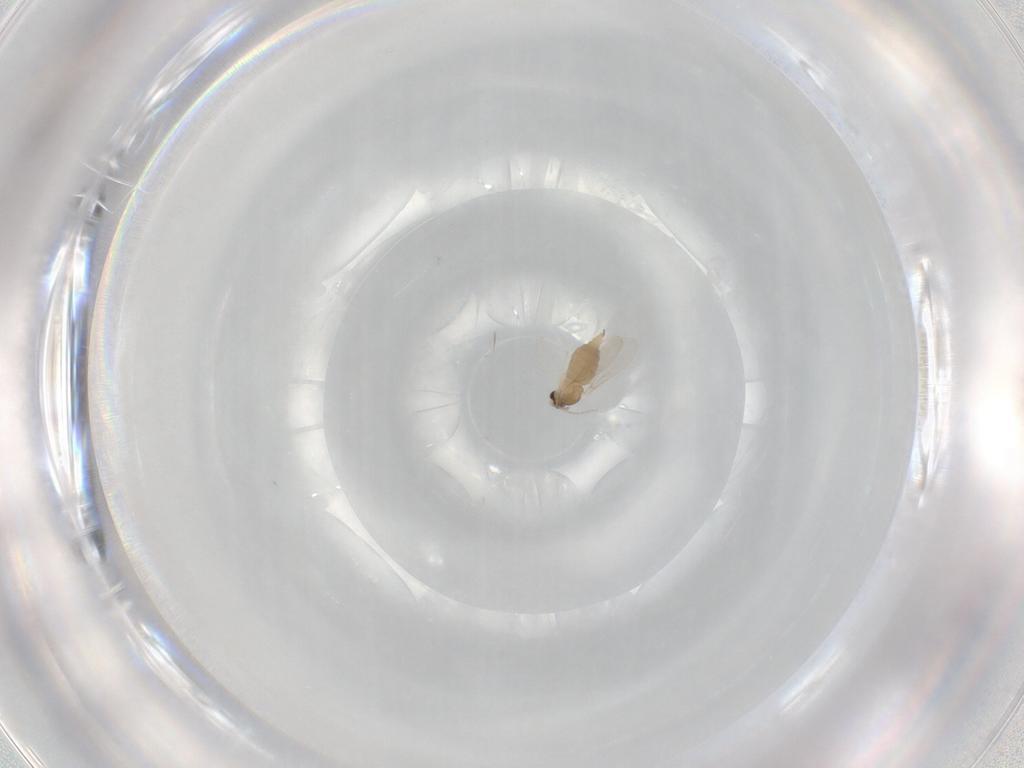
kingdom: Animalia
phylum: Arthropoda
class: Insecta
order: Diptera
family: Cecidomyiidae
